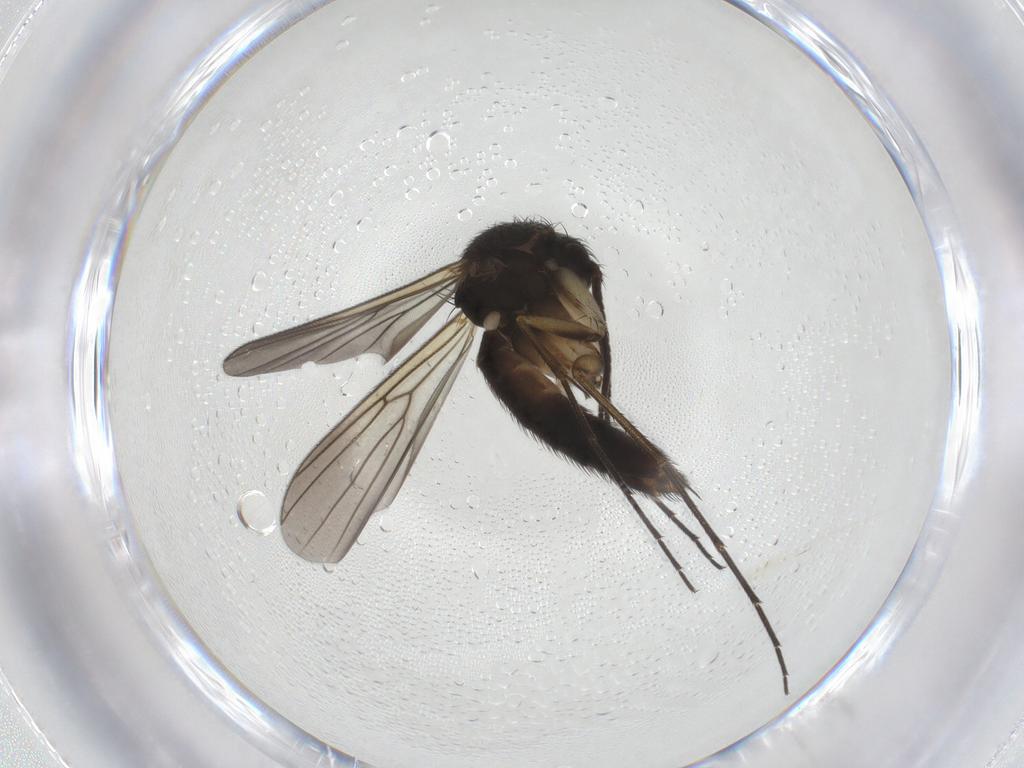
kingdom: Animalia
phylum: Arthropoda
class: Insecta
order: Diptera
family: Mycetophilidae
